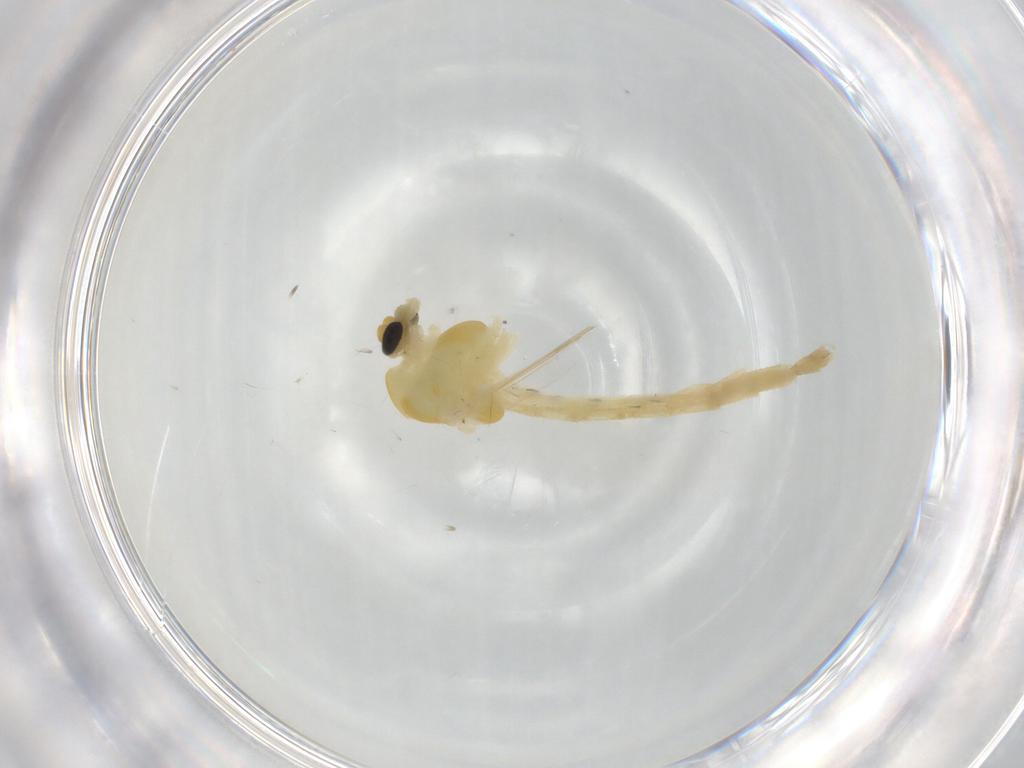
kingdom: Animalia
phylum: Arthropoda
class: Insecta
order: Diptera
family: Chironomidae
